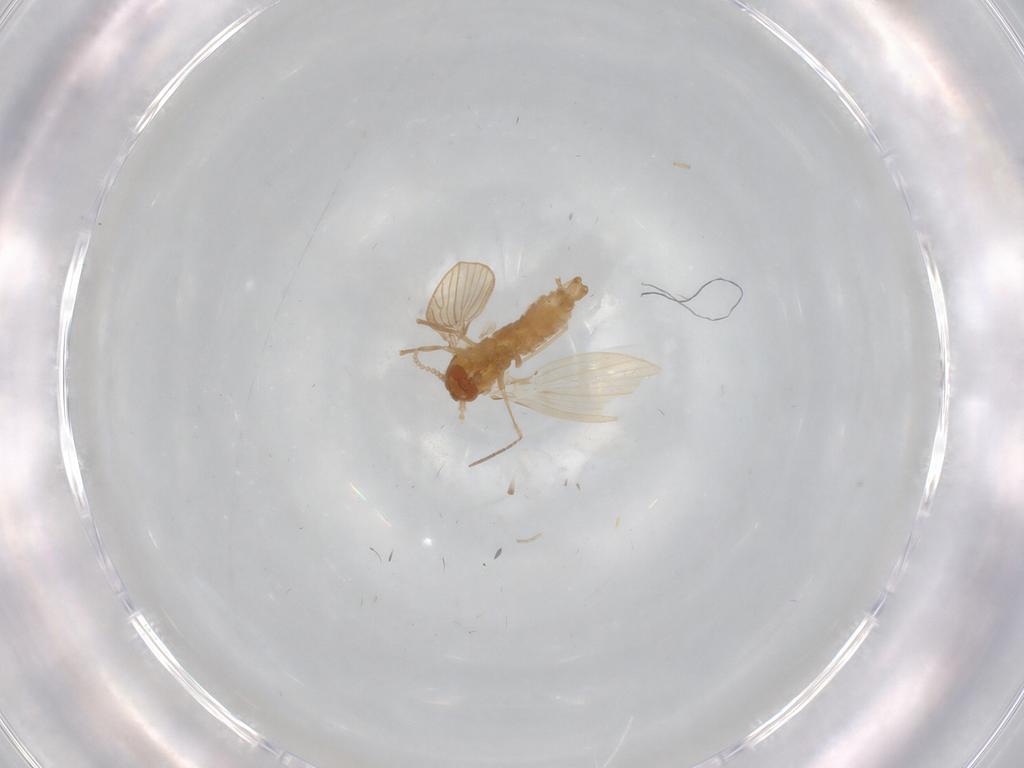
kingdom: Animalia
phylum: Arthropoda
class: Insecta
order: Diptera
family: Chironomidae
